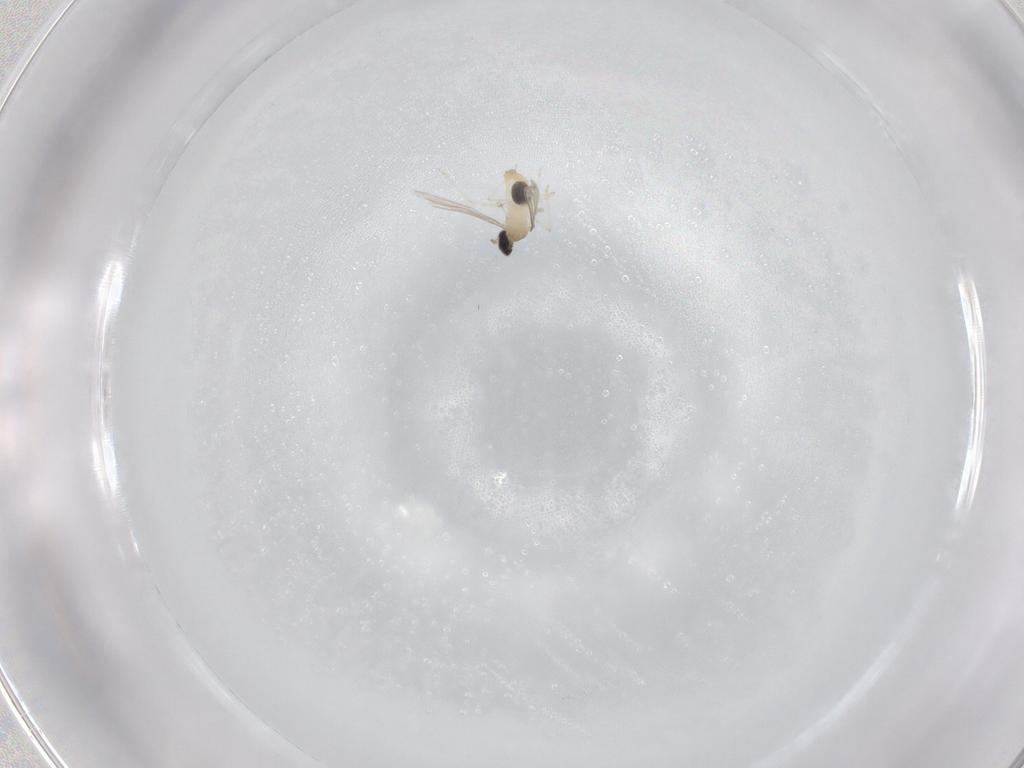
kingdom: Animalia
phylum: Arthropoda
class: Insecta
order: Diptera
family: Cecidomyiidae
